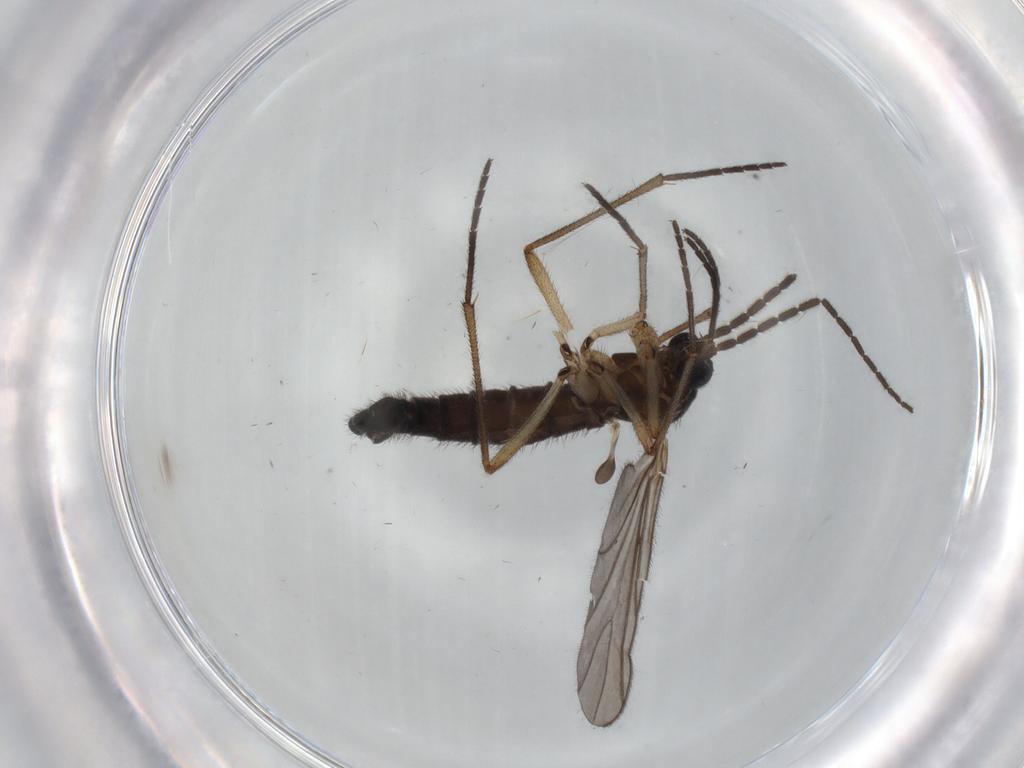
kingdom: Animalia
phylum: Arthropoda
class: Insecta
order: Diptera
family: Sciaridae
